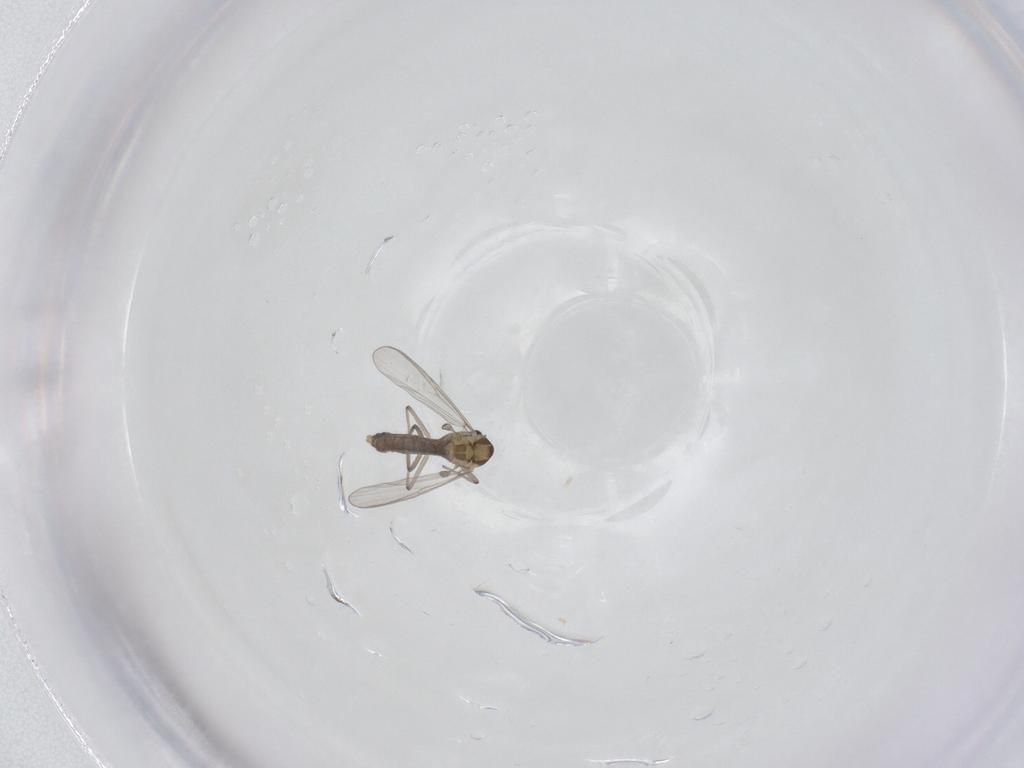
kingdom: Animalia
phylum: Arthropoda
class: Insecta
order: Diptera
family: Chironomidae
